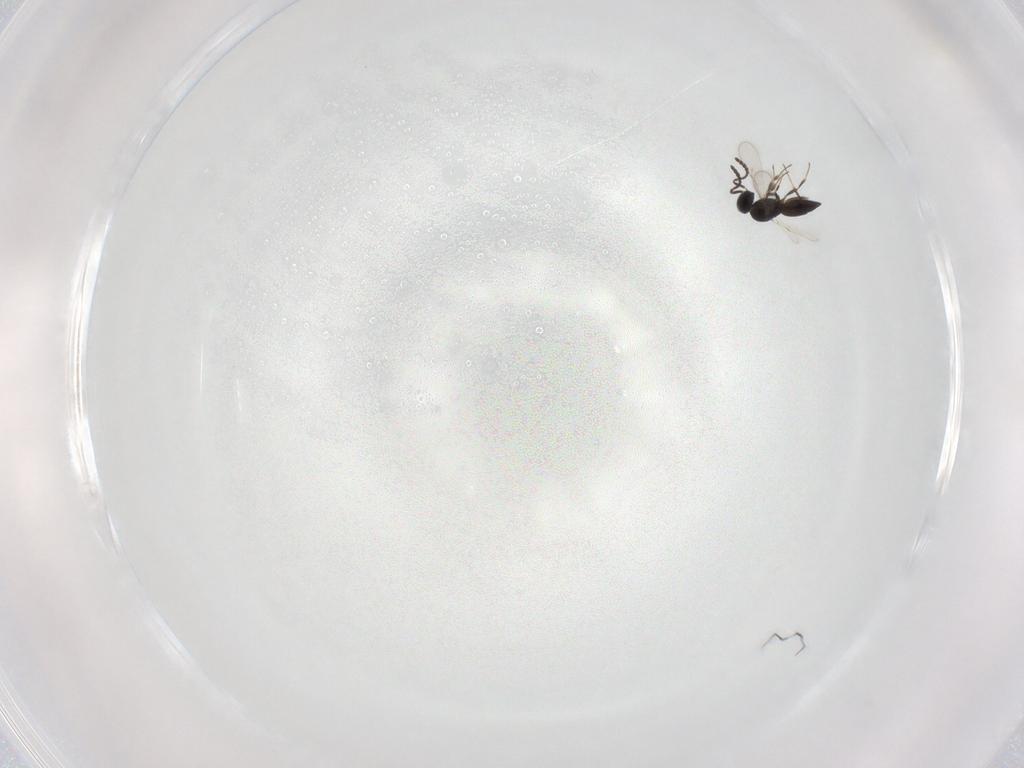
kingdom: Animalia
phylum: Arthropoda
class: Insecta
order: Hymenoptera
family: Scelionidae
